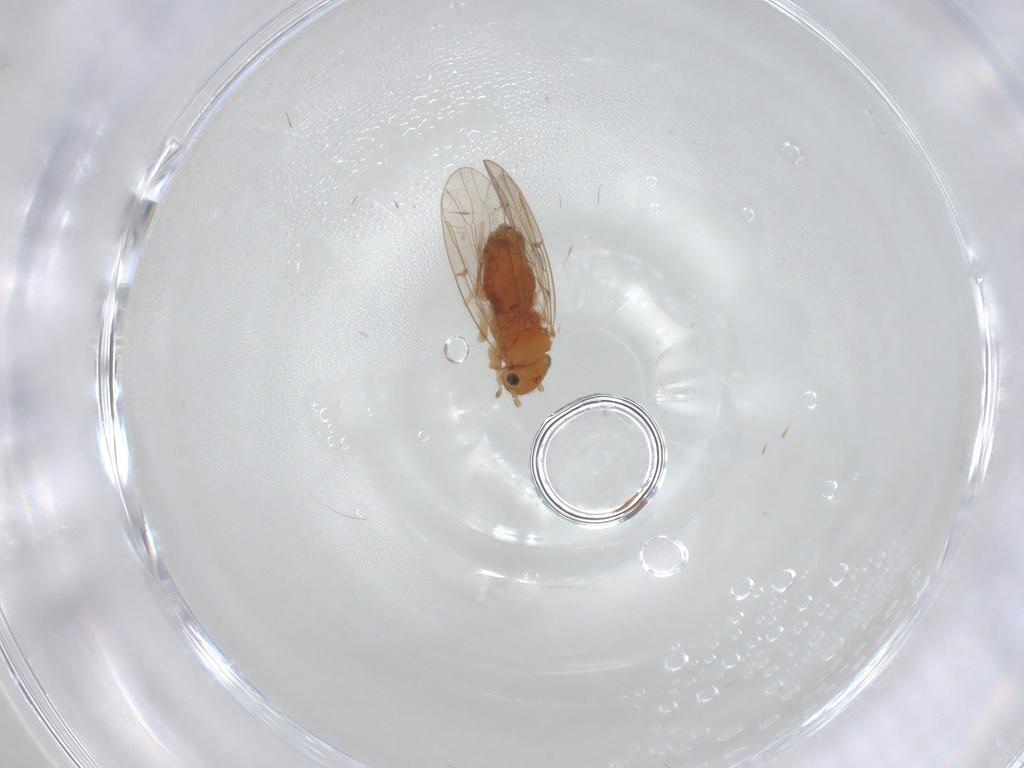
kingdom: Animalia
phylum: Arthropoda
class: Insecta
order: Psocodea
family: Ectopsocidae
